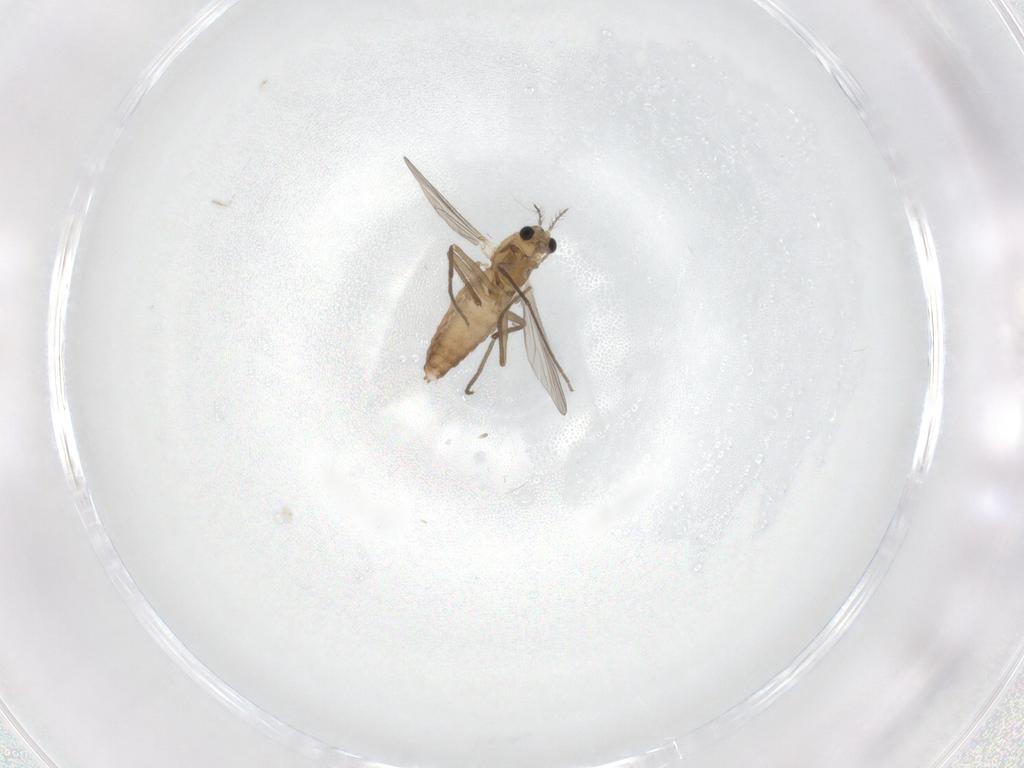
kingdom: Animalia
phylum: Arthropoda
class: Insecta
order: Diptera
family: Chironomidae
